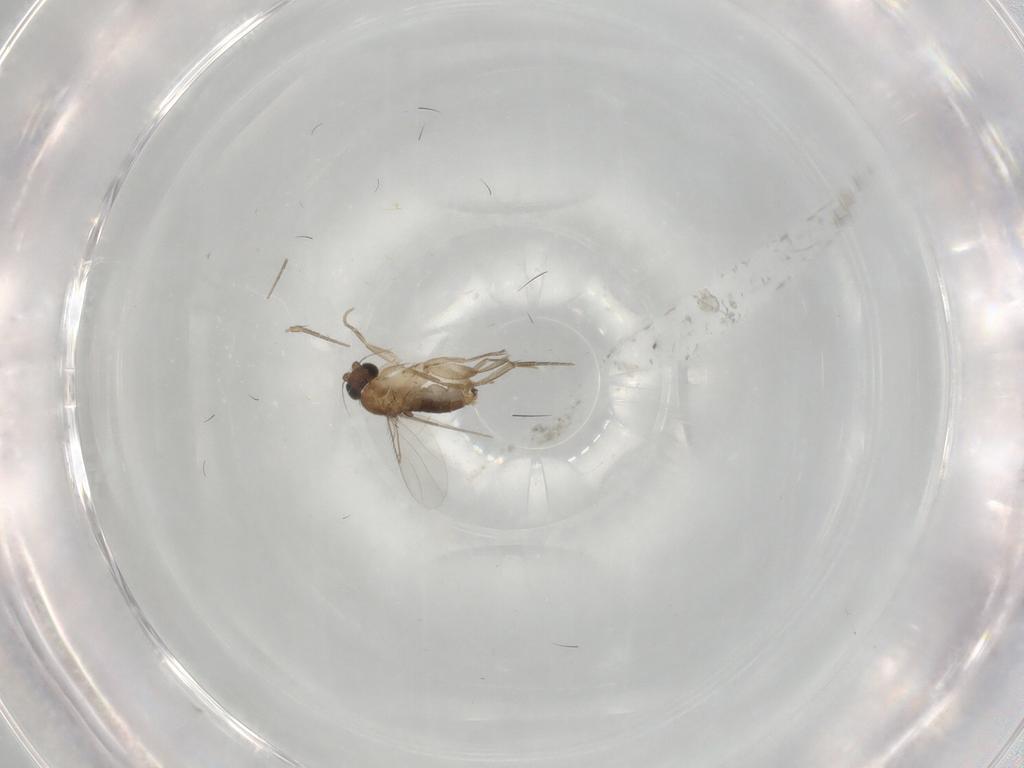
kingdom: Animalia
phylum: Arthropoda
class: Insecta
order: Diptera
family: Phoridae
